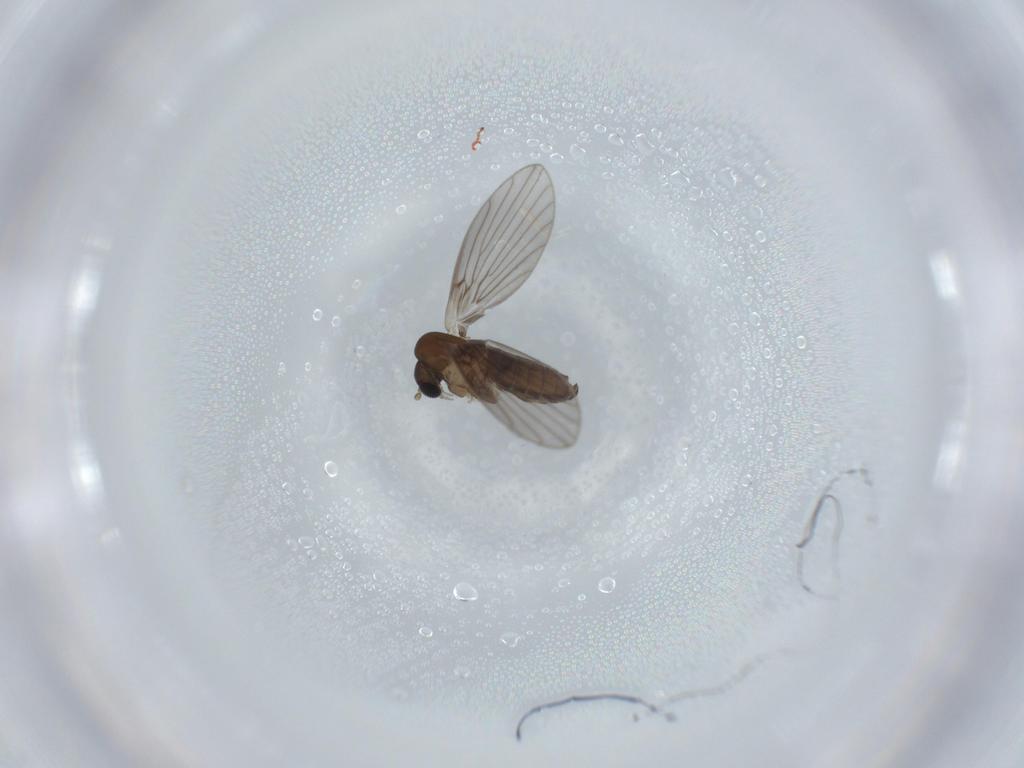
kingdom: Animalia
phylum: Arthropoda
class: Insecta
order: Diptera
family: Psychodidae
